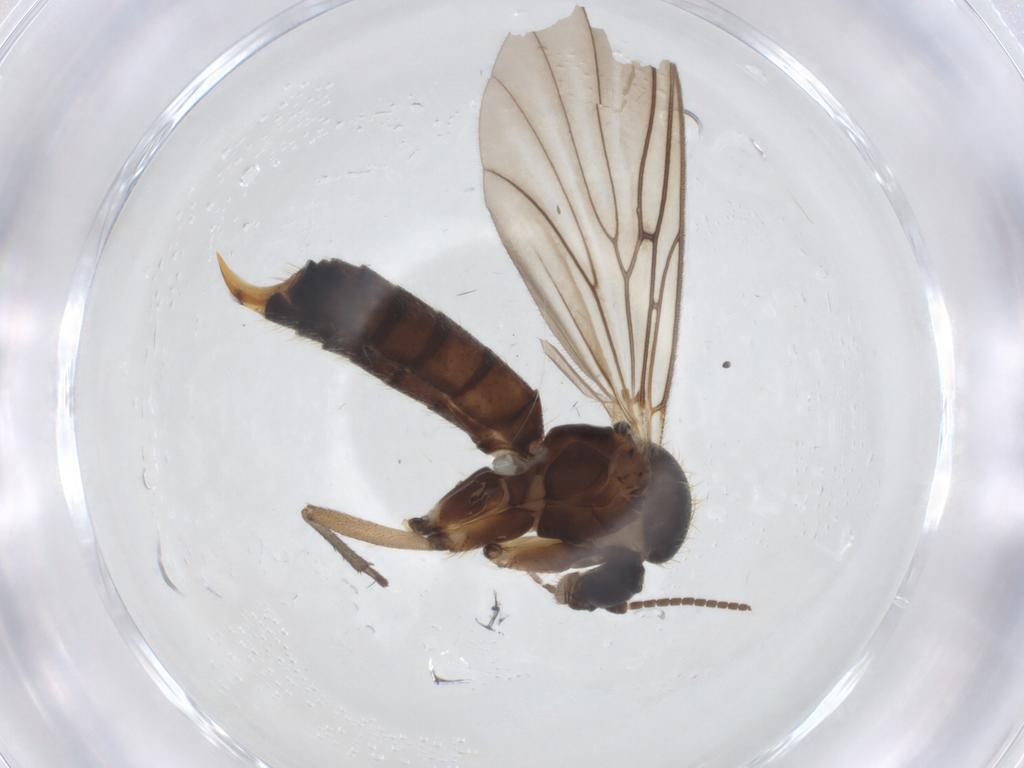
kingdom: Animalia
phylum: Arthropoda
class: Insecta
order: Diptera
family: Mycetophilidae
